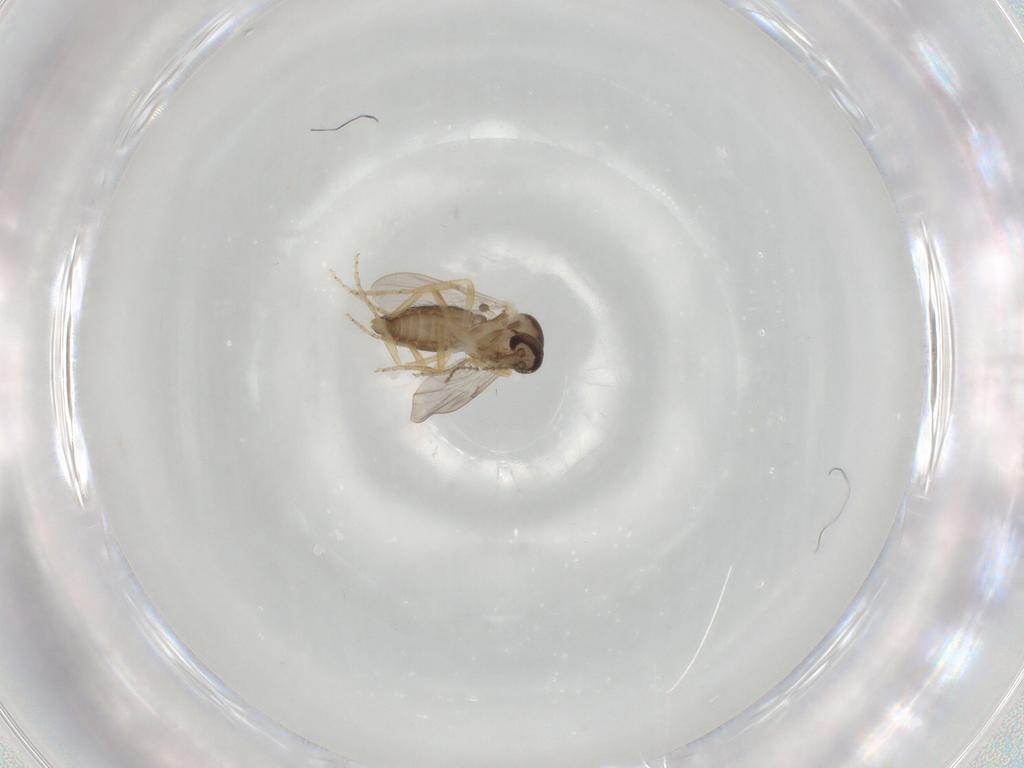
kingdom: Animalia
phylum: Arthropoda
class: Insecta
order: Diptera
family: Ceratopogonidae
